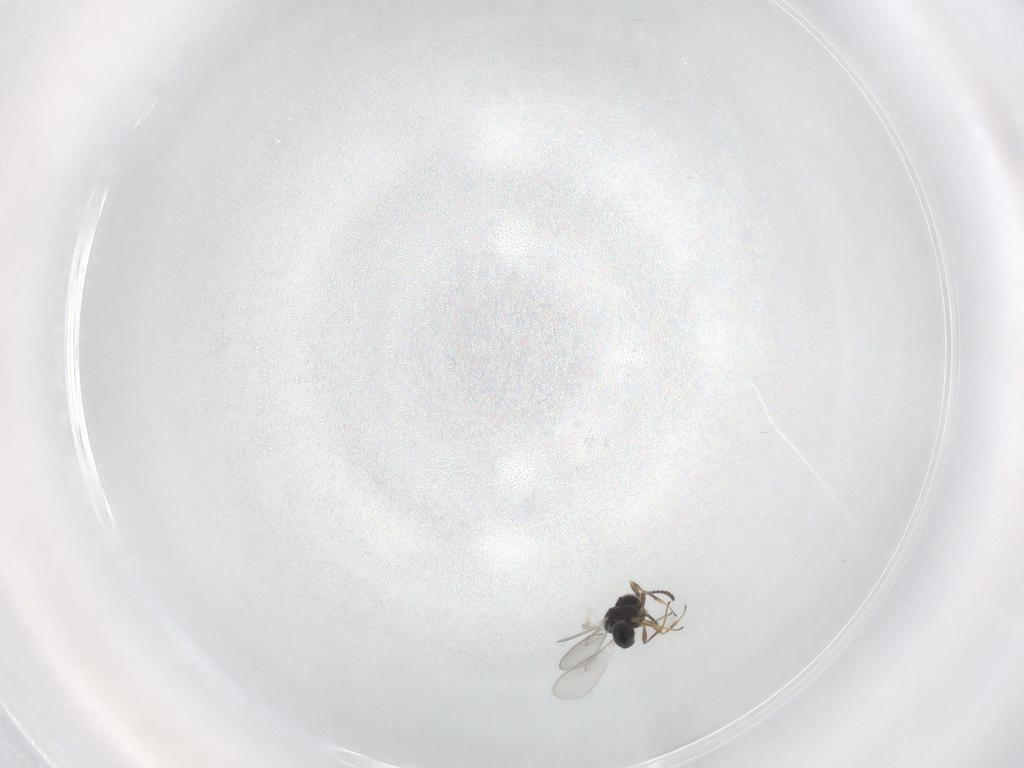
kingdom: Animalia
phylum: Arthropoda
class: Insecta
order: Hymenoptera
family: Scelionidae
